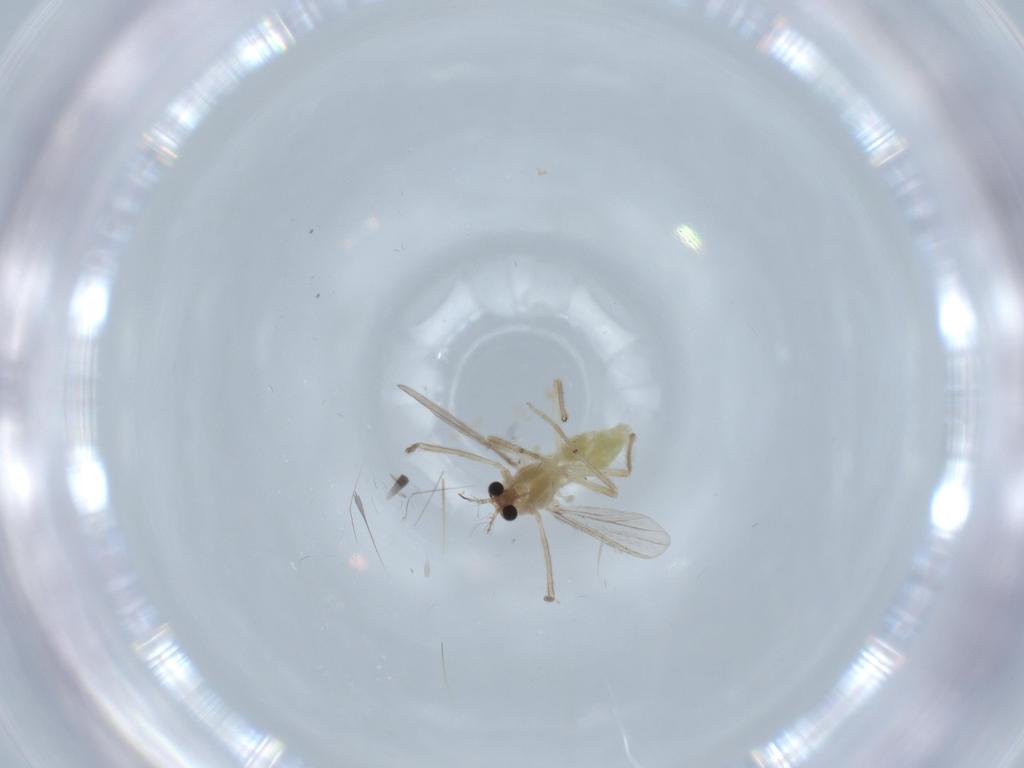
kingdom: Animalia
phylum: Arthropoda
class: Insecta
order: Diptera
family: Chironomidae
